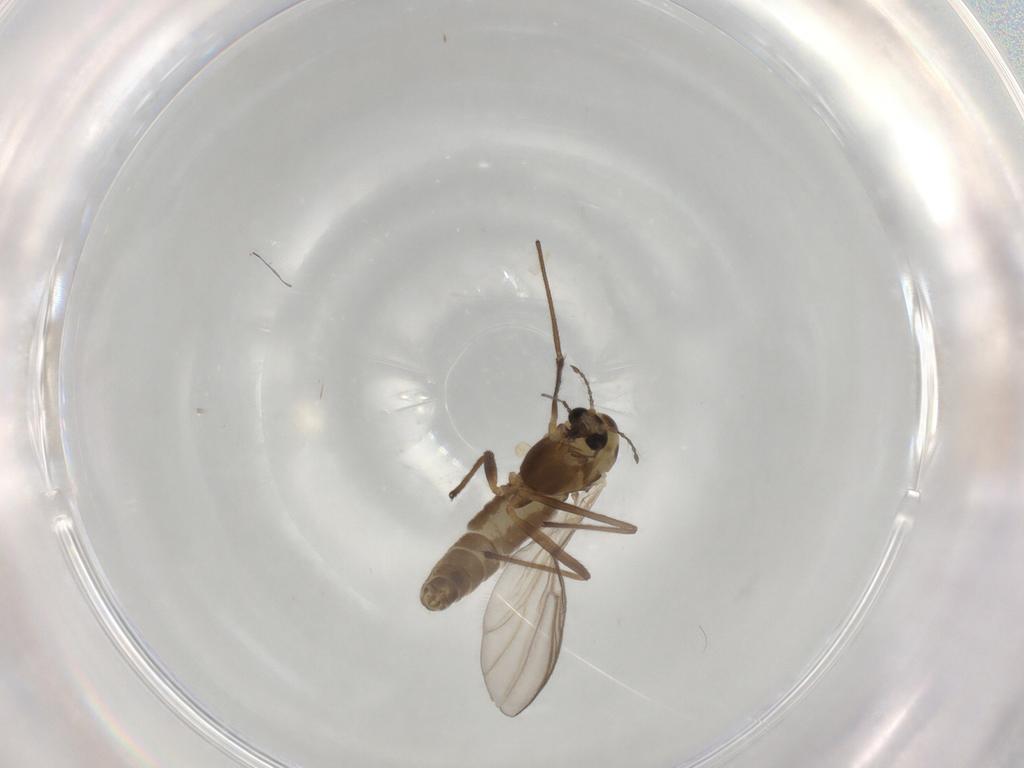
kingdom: Animalia
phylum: Arthropoda
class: Insecta
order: Diptera
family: Chironomidae
